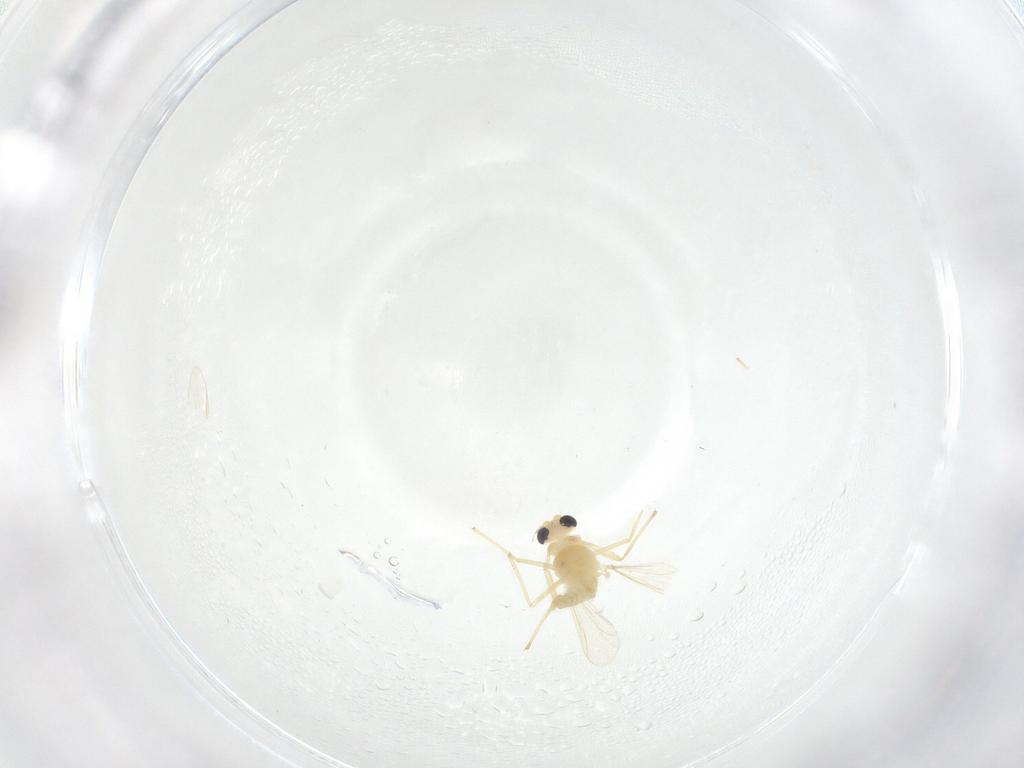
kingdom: Animalia
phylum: Arthropoda
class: Insecta
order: Diptera
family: Chironomidae
